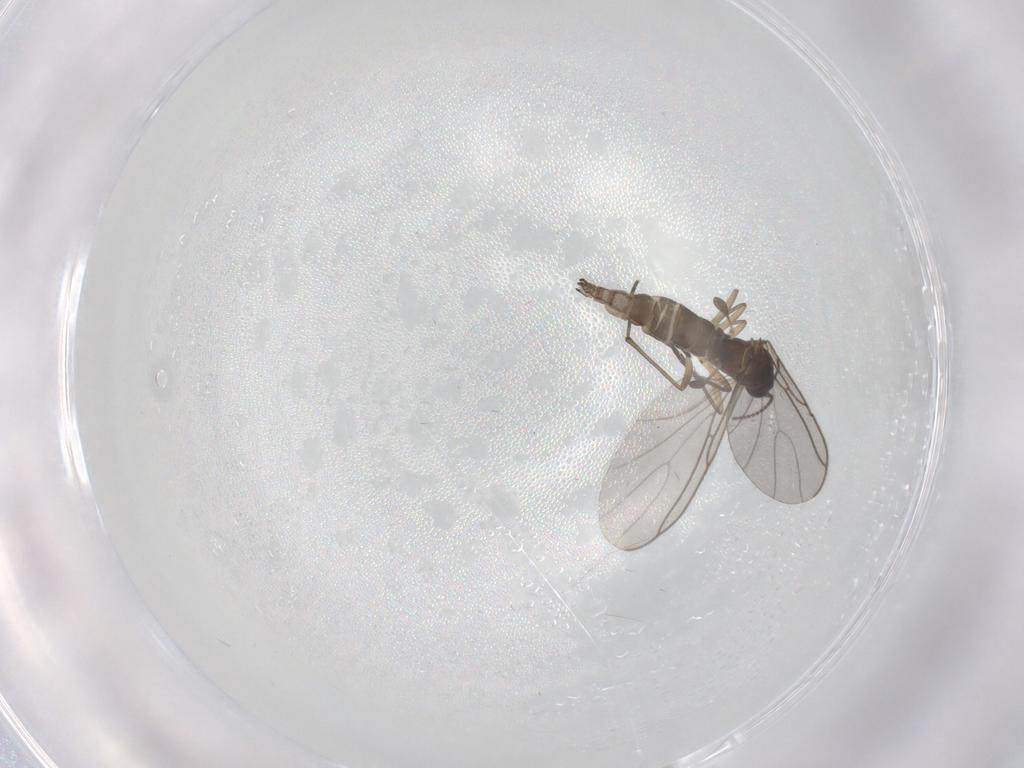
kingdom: Animalia
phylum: Arthropoda
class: Insecta
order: Diptera
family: Sciaridae
